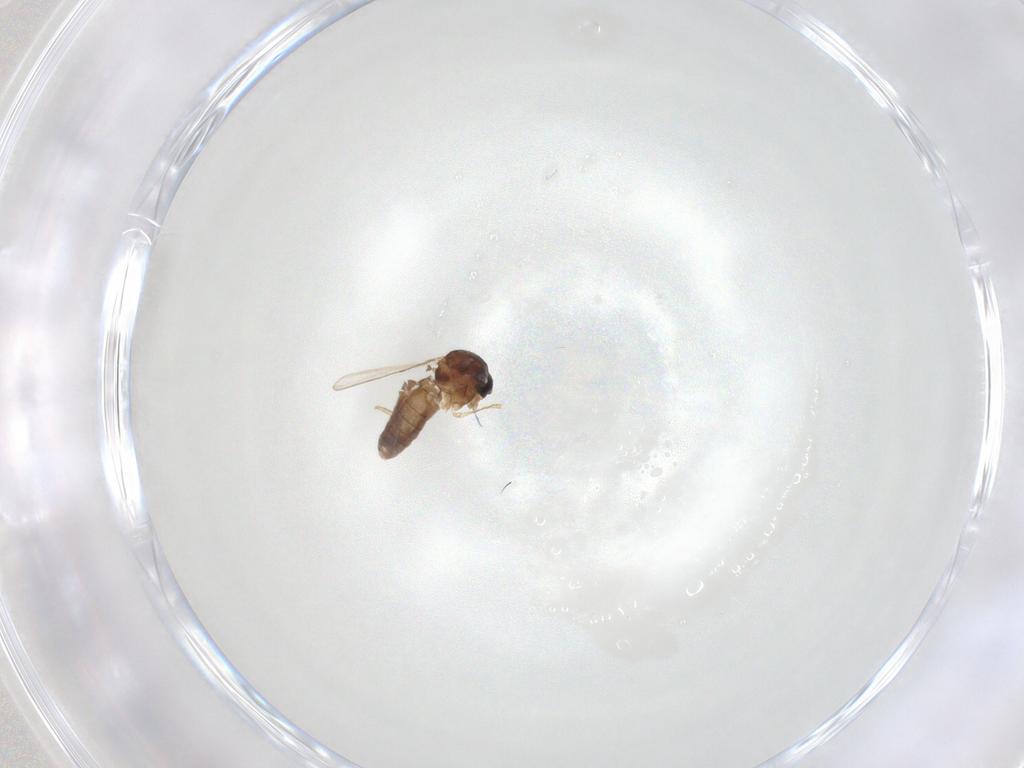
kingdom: Animalia
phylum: Arthropoda
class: Insecta
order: Diptera
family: Ceratopogonidae
